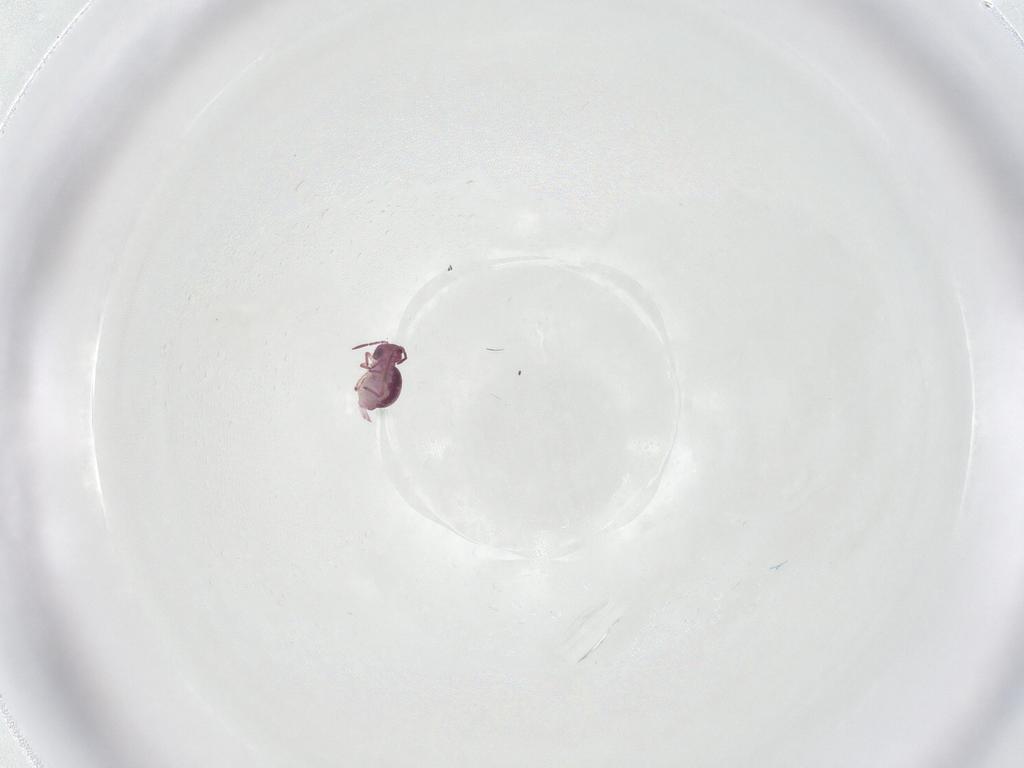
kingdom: Animalia
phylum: Arthropoda
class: Collembola
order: Symphypleona
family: Sminthurididae
